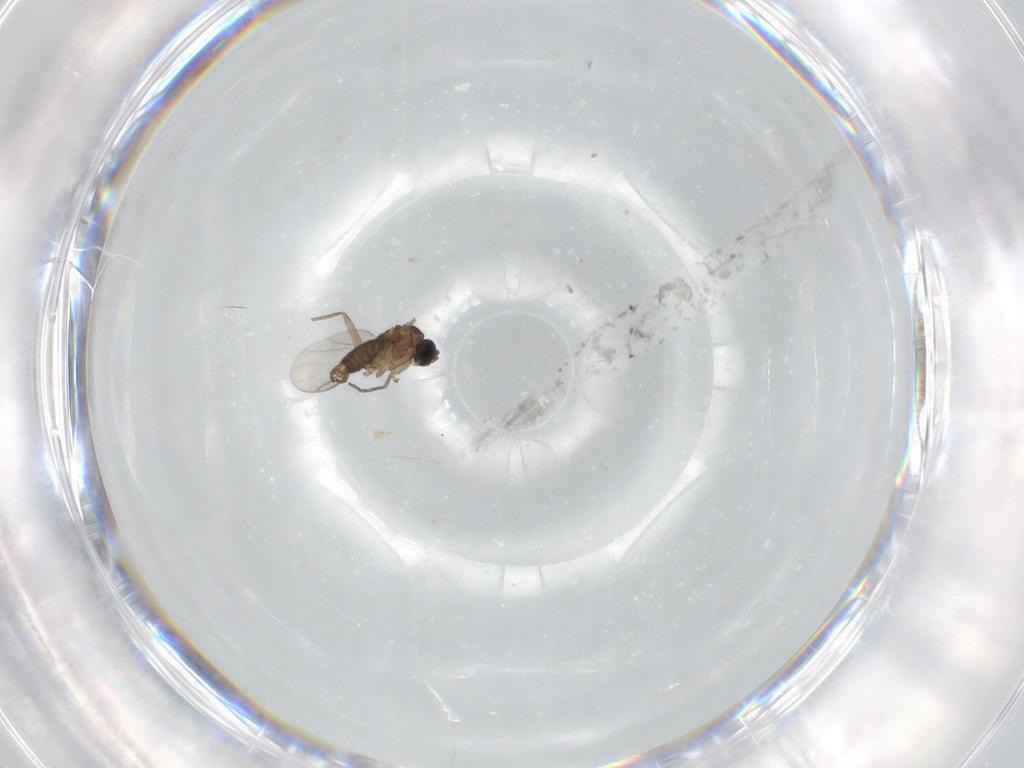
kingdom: Animalia
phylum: Arthropoda
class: Insecta
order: Diptera
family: Sciaridae
